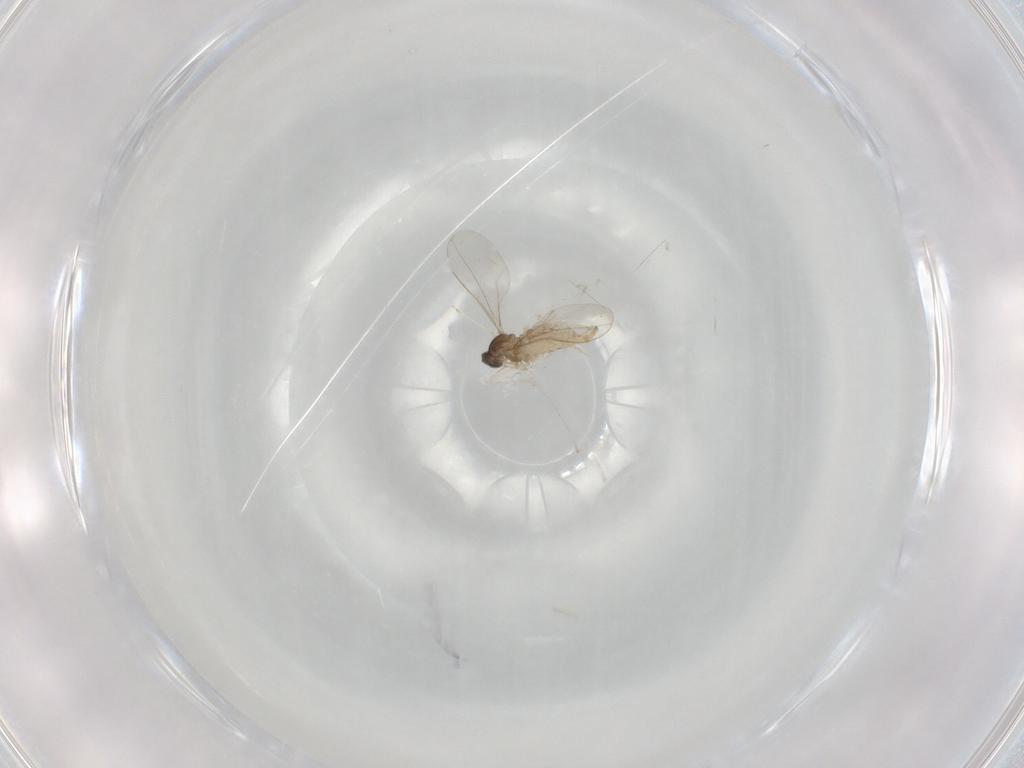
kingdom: Animalia
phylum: Arthropoda
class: Insecta
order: Diptera
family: Cecidomyiidae
